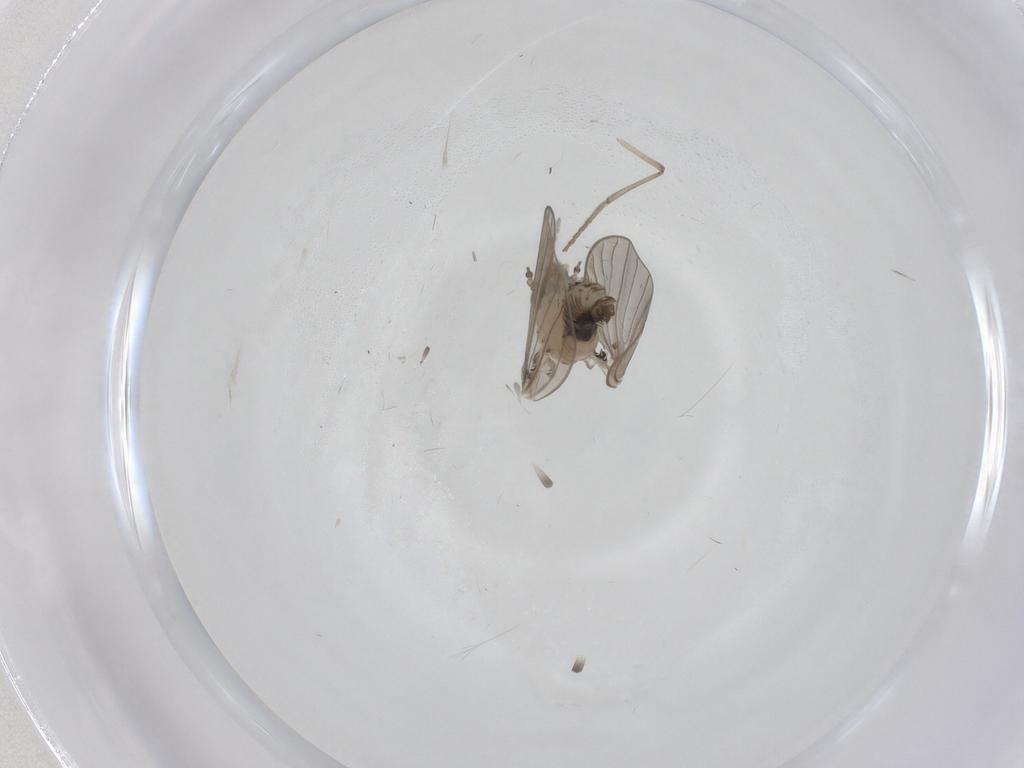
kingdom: Animalia
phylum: Arthropoda
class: Insecta
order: Diptera
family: Psychodidae
